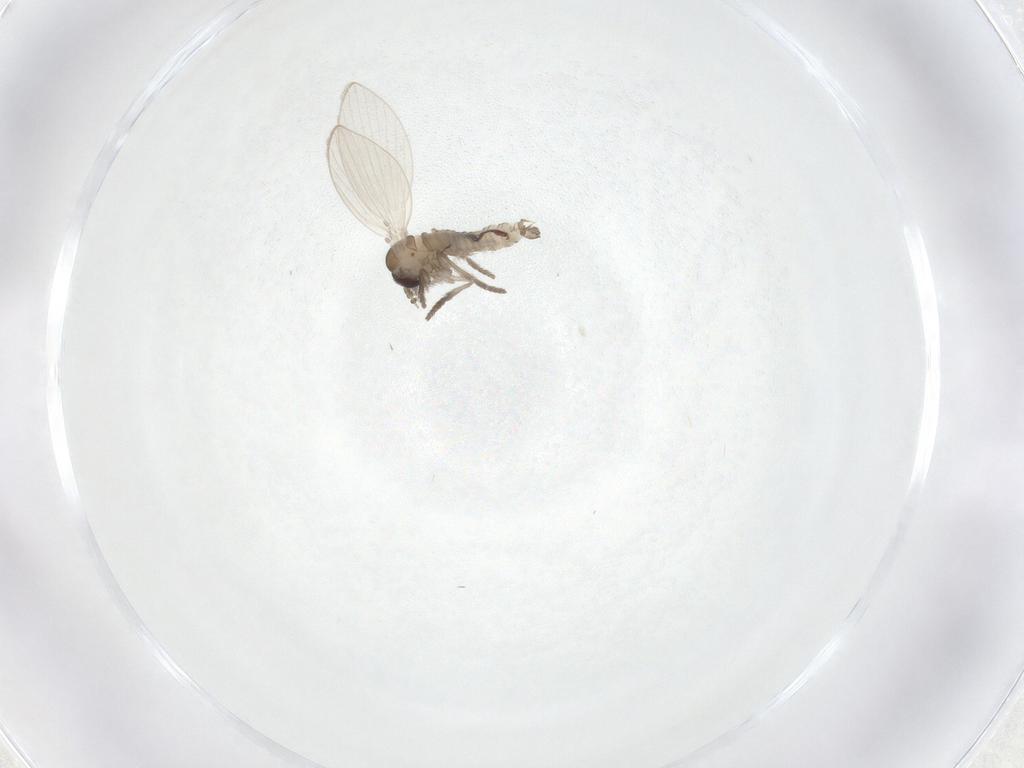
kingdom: Animalia
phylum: Arthropoda
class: Insecta
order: Diptera
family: Psychodidae
